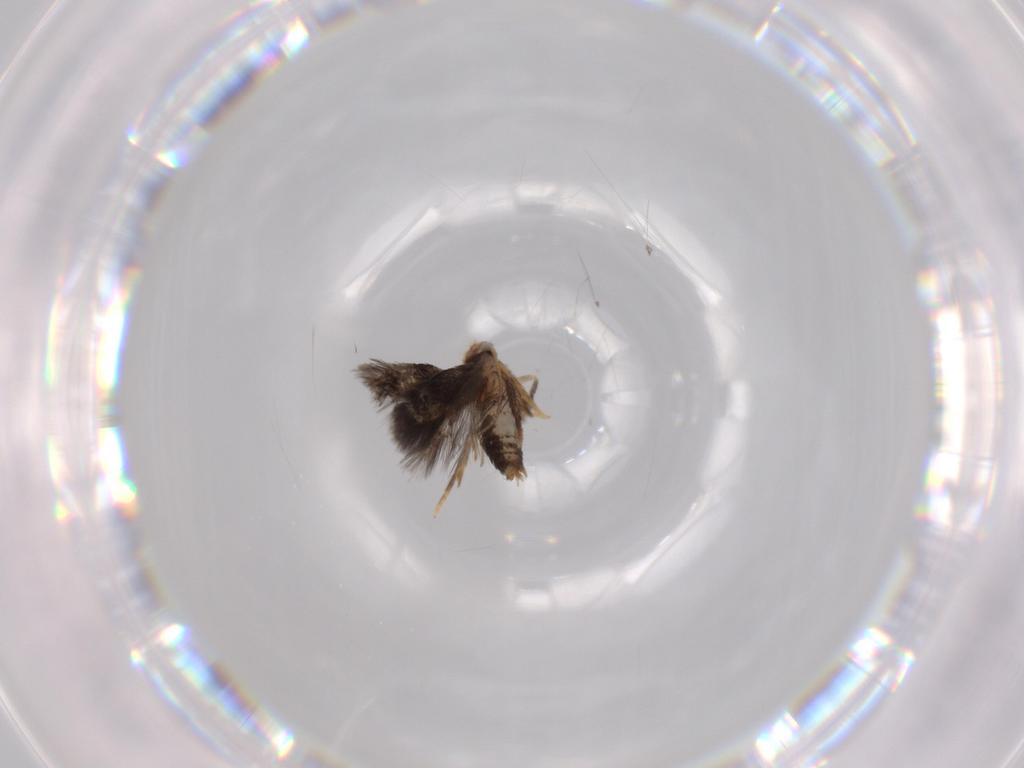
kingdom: Animalia
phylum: Arthropoda
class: Insecta
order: Lepidoptera
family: Nepticulidae
